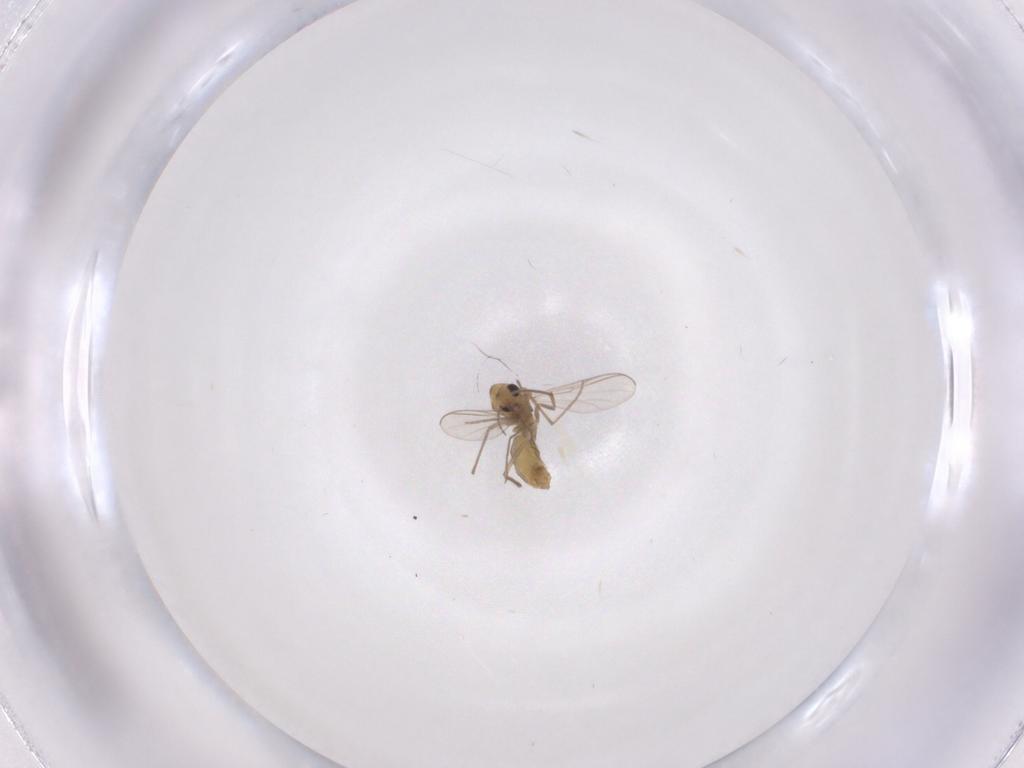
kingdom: Animalia
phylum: Arthropoda
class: Insecta
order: Diptera
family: Chironomidae
